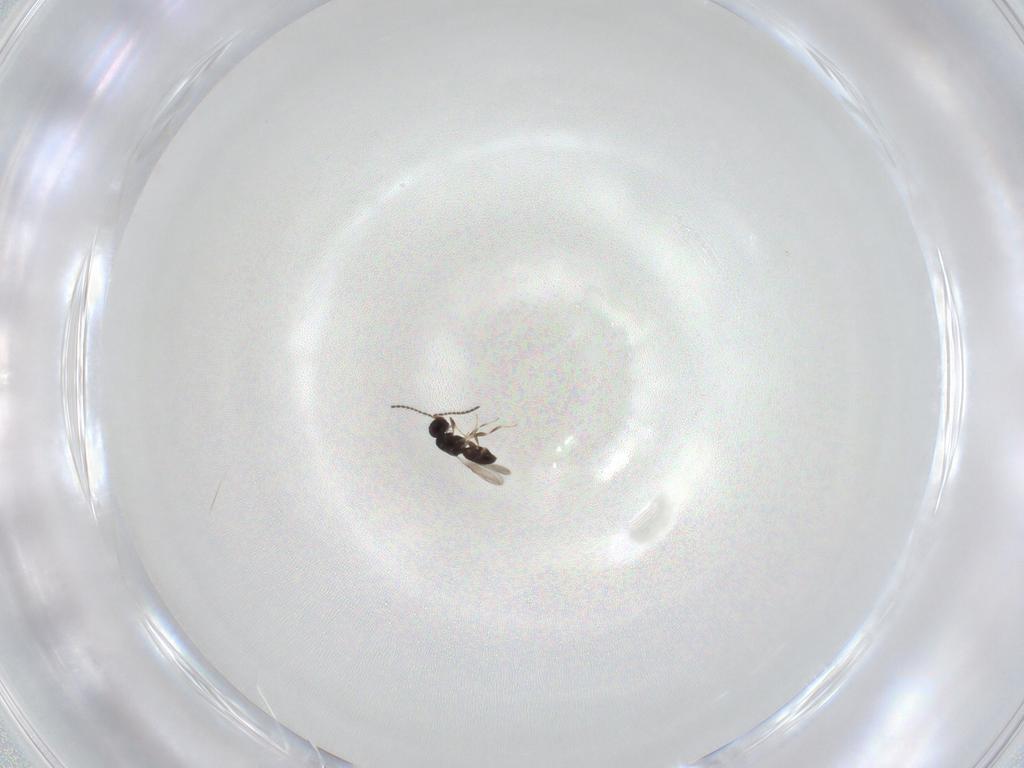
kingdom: Animalia
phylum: Arthropoda
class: Insecta
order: Hymenoptera
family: Ceraphronidae
